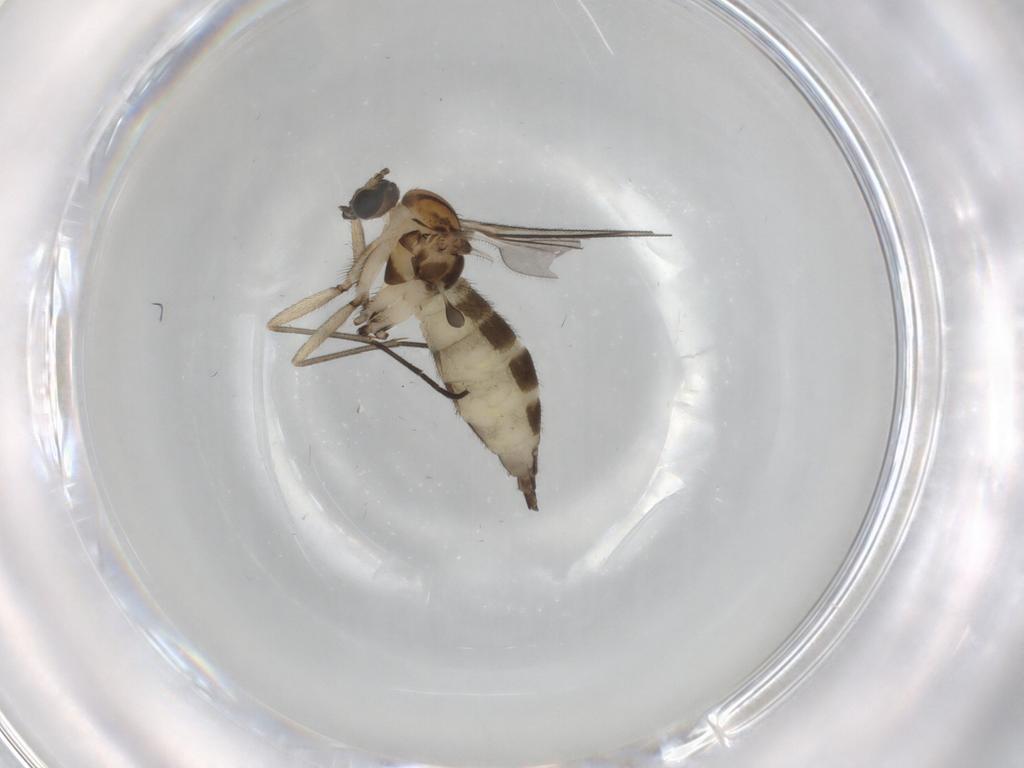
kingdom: Animalia
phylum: Arthropoda
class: Insecta
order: Diptera
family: Sciaridae
